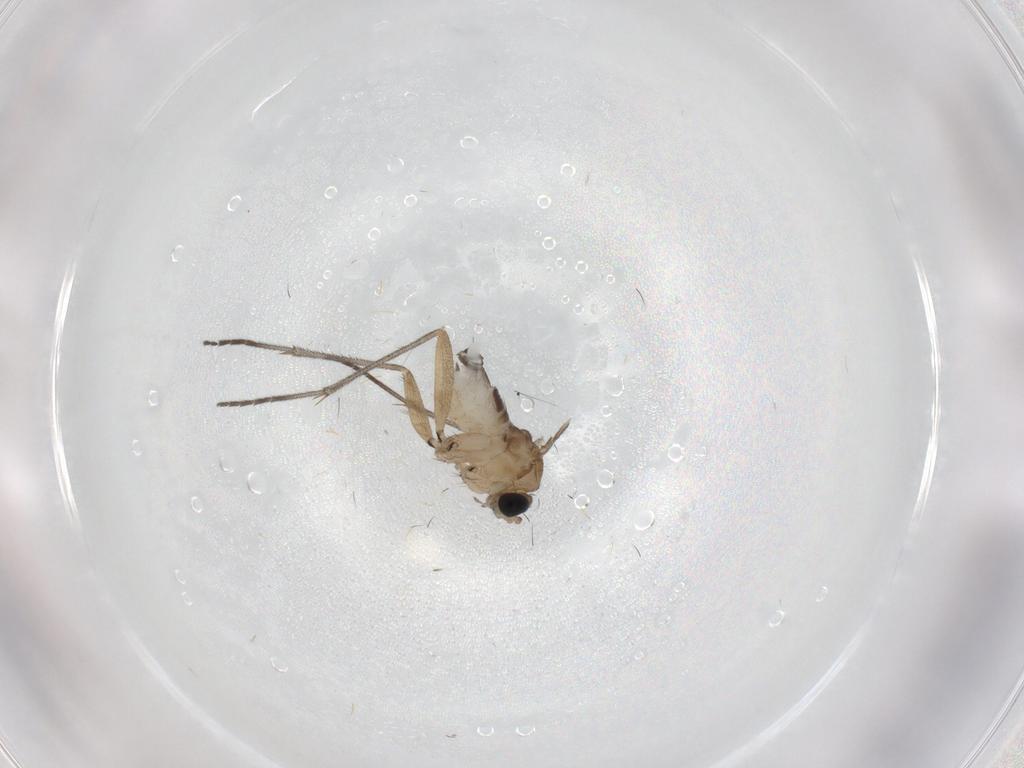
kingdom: Animalia
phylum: Arthropoda
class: Insecta
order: Diptera
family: Sciaridae
